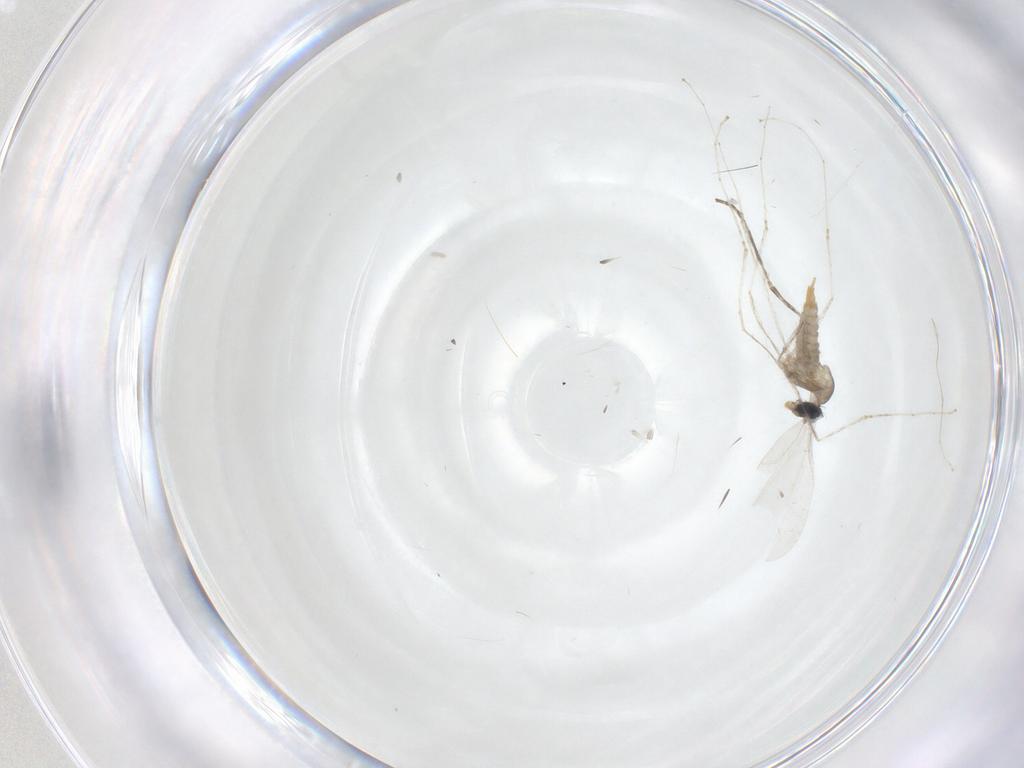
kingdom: Animalia
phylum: Arthropoda
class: Insecta
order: Diptera
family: Cecidomyiidae
